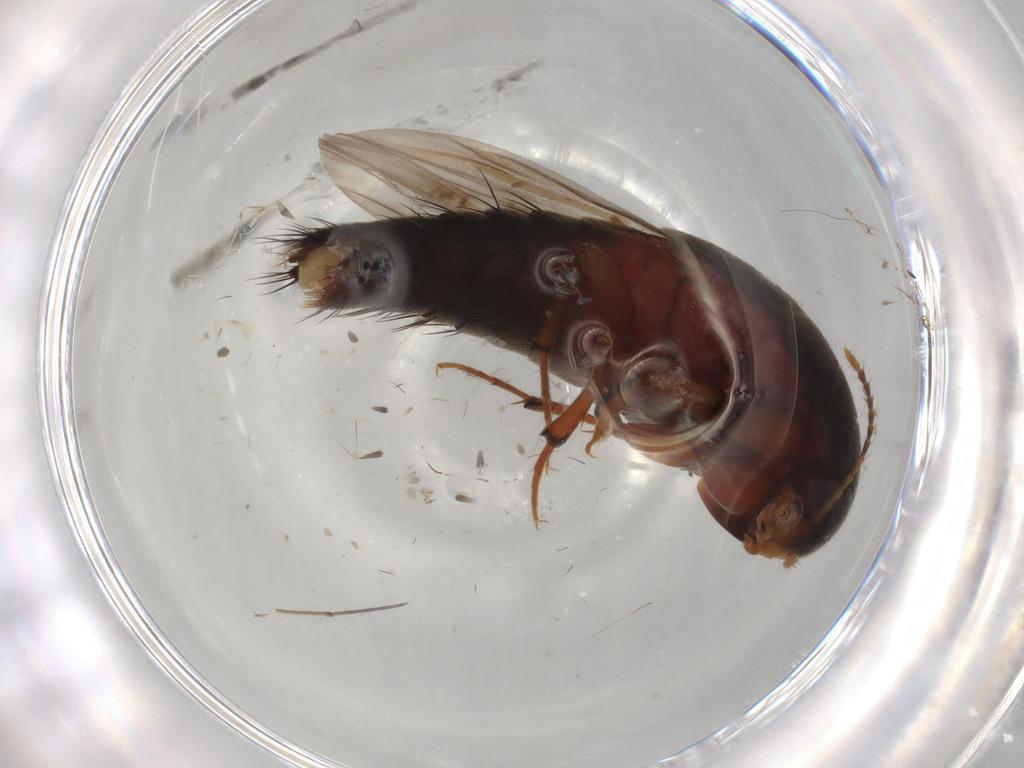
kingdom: Animalia
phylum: Arthropoda
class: Insecta
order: Coleoptera
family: Staphylinidae
